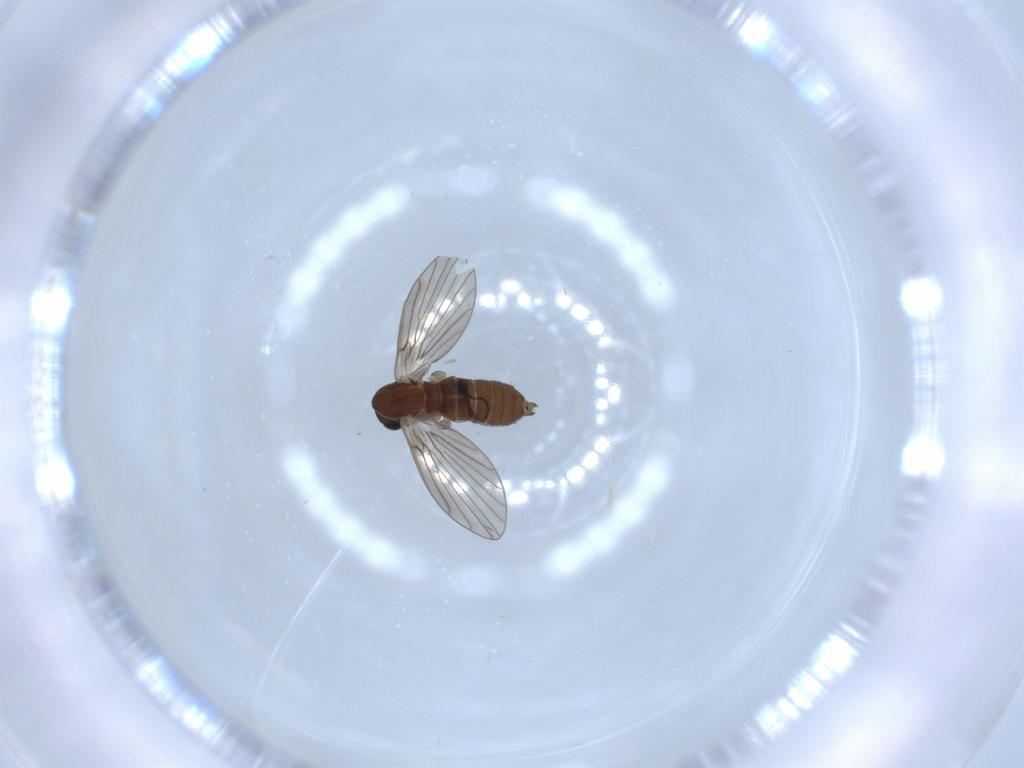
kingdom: Animalia
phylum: Arthropoda
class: Insecta
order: Diptera
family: Psychodidae
